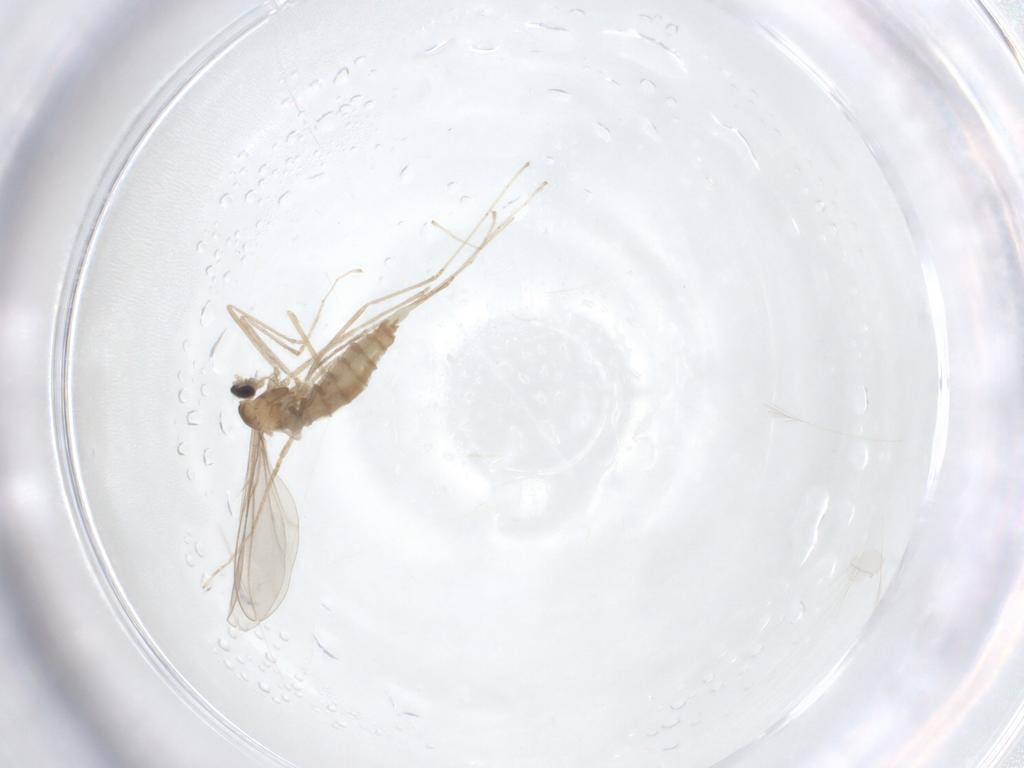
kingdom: Animalia
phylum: Arthropoda
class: Insecta
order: Diptera
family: Cecidomyiidae
